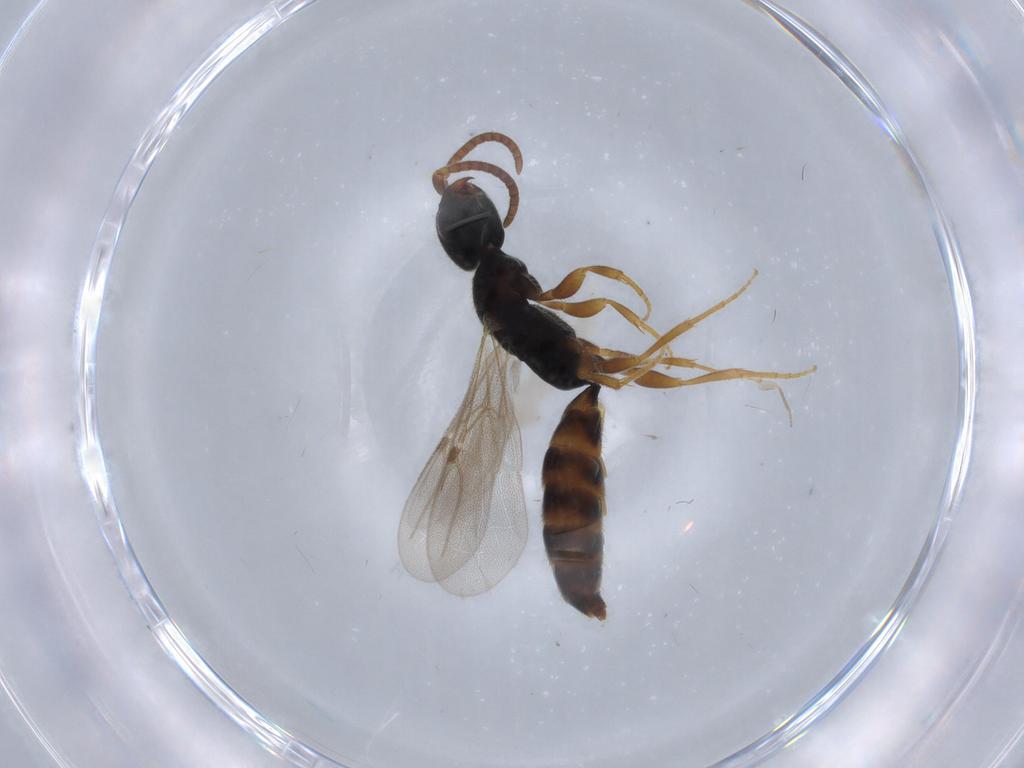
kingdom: Animalia
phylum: Arthropoda
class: Insecta
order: Hymenoptera
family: Bethylidae
